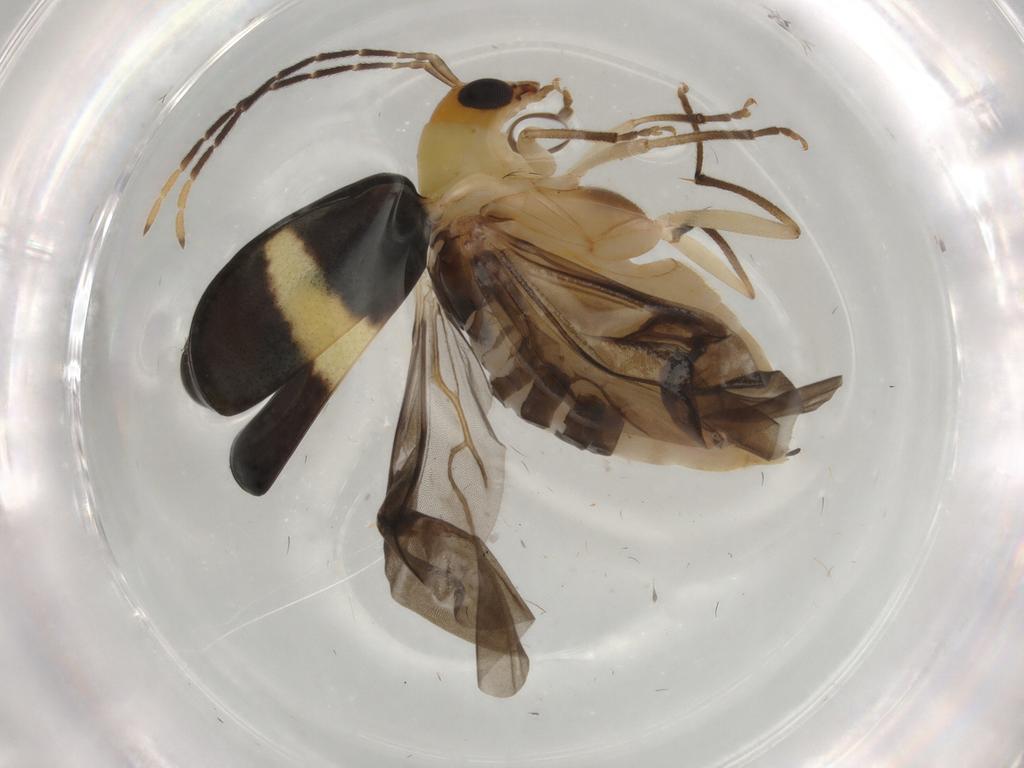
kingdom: Animalia
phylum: Arthropoda
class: Insecta
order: Coleoptera
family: Chrysomelidae
